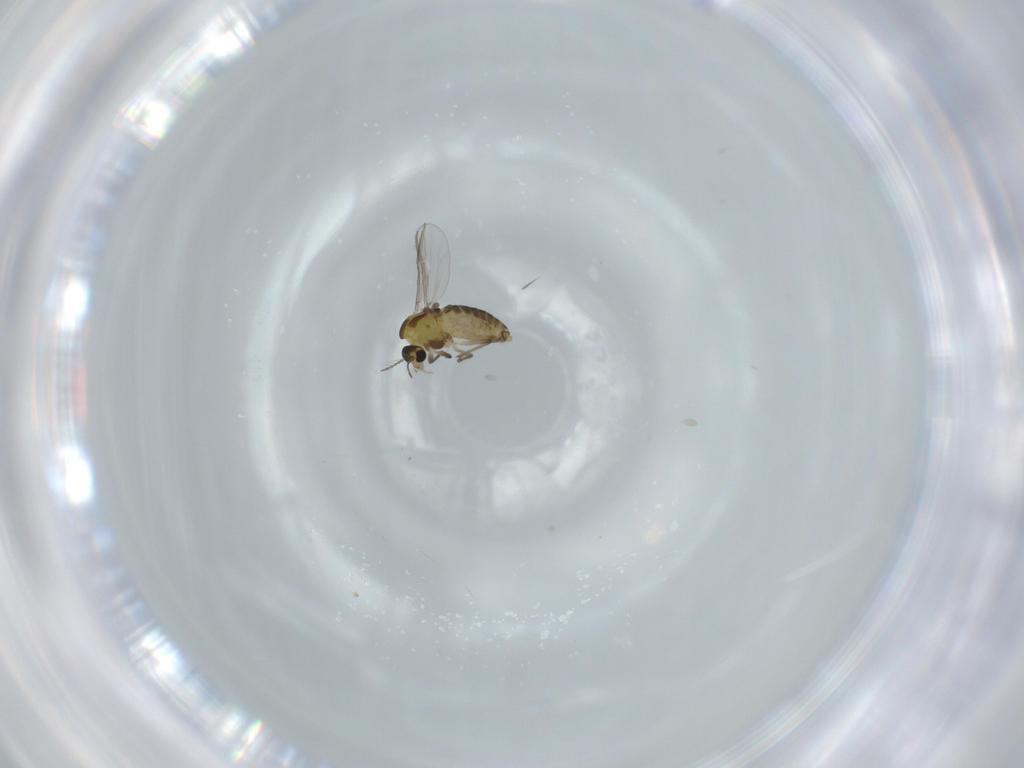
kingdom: Animalia
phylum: Arthropoda
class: Insecta
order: Diptera
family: Chironomidae
